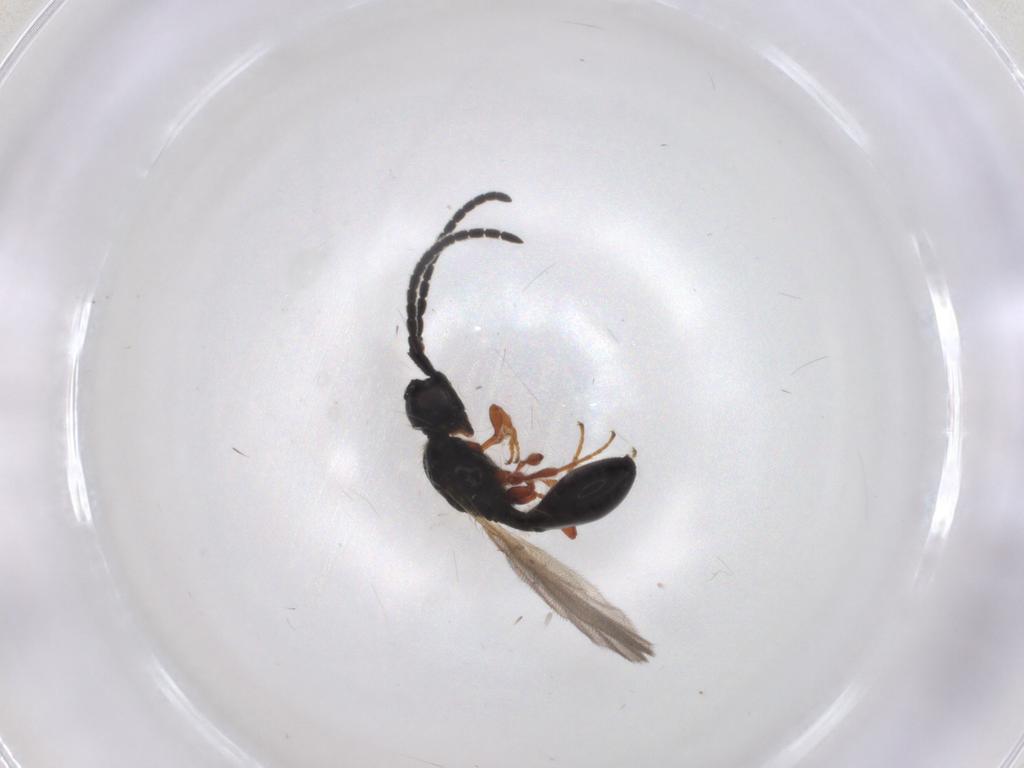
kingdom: Animalia
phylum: Arthropoda
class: Insecta
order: Hymenoptera
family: Diapriidae
